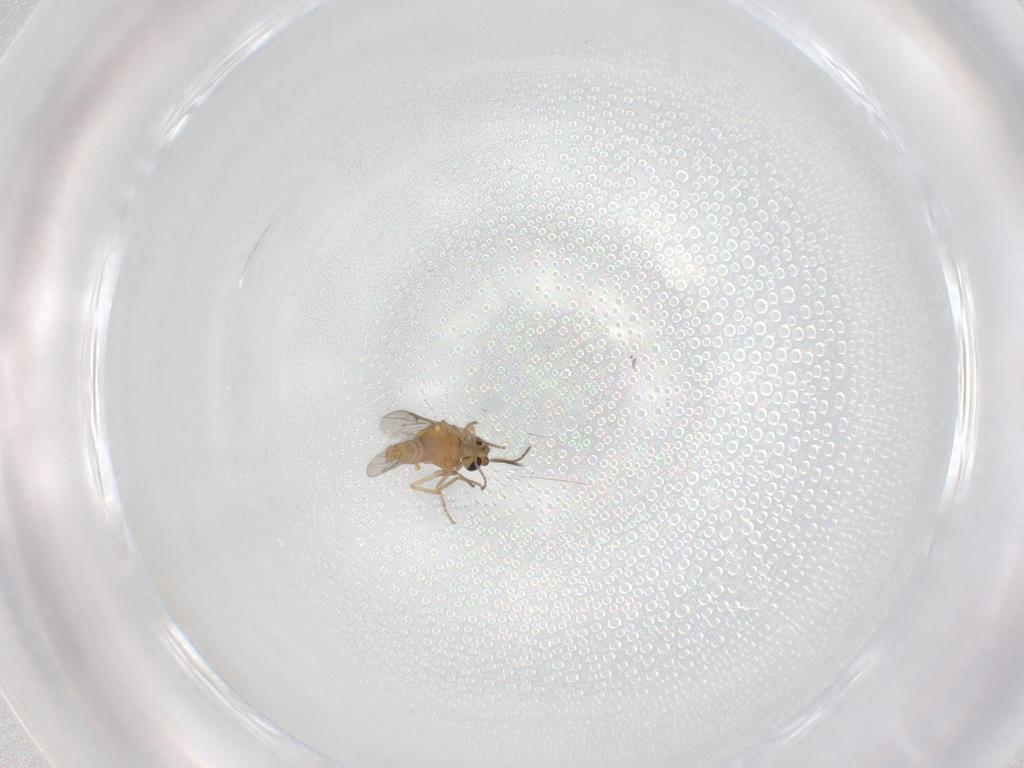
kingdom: Animalia
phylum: Arthropoda
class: Insecta
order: Diptera
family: Ceratopogonidae
